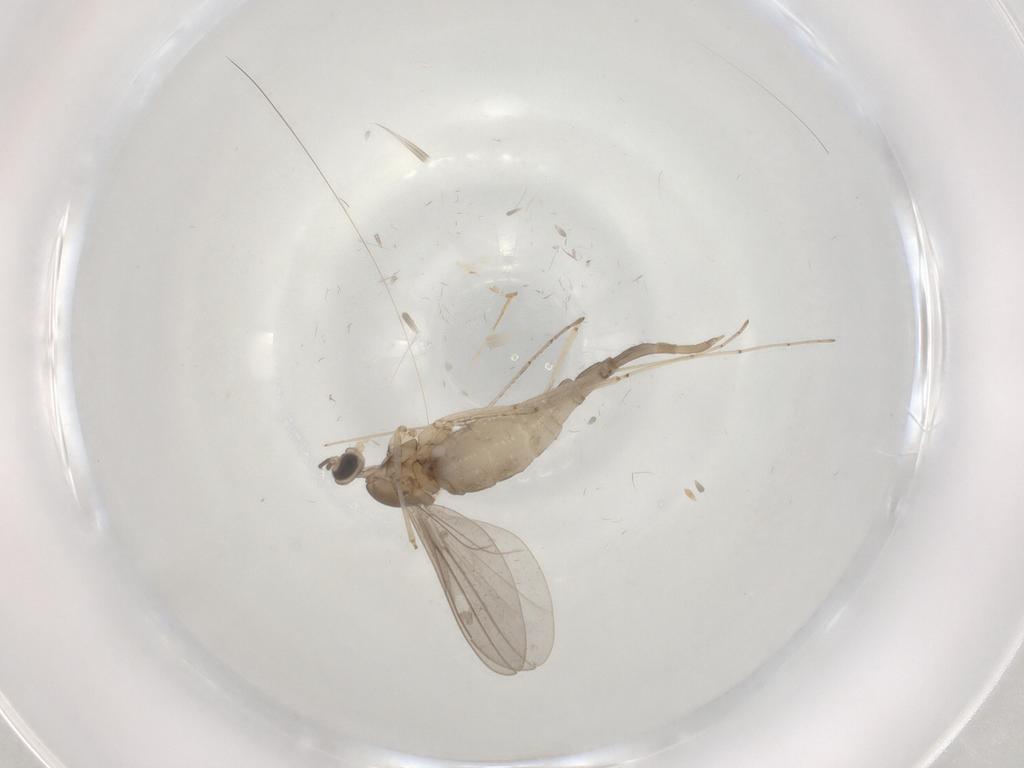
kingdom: Animalia
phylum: Arthropoda
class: Insecta
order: Diptera
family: Cecidomyiidae
